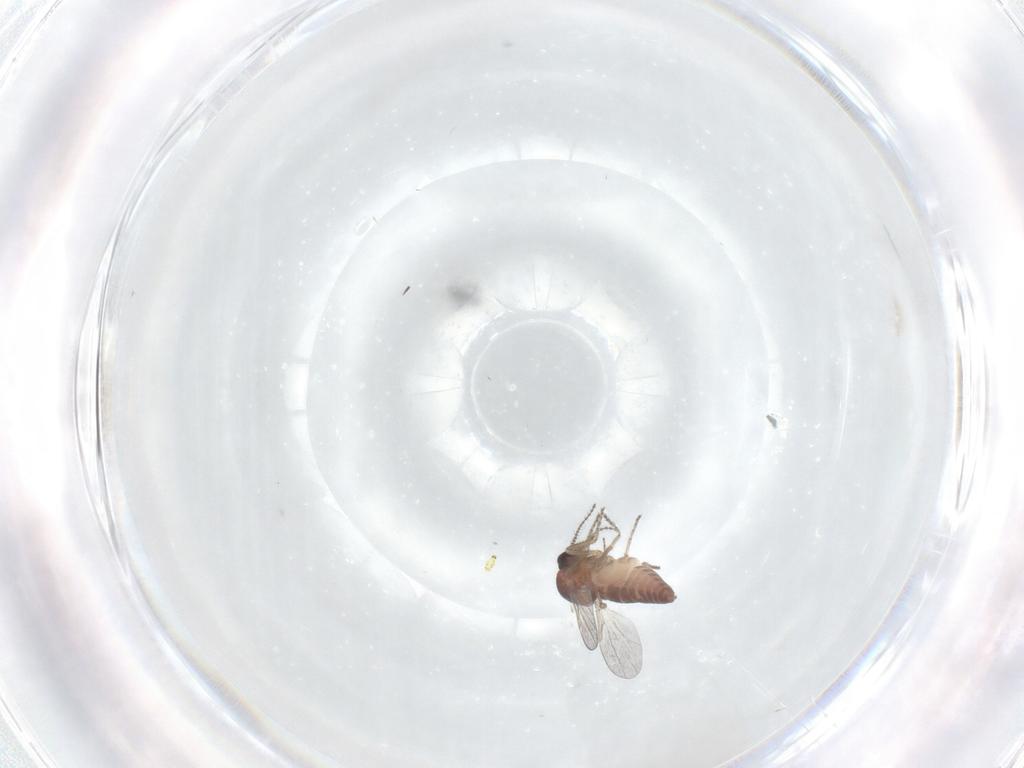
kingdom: Animalia
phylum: Arthropoda
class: Insecta
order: Diptera
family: Ceratopogonidae
